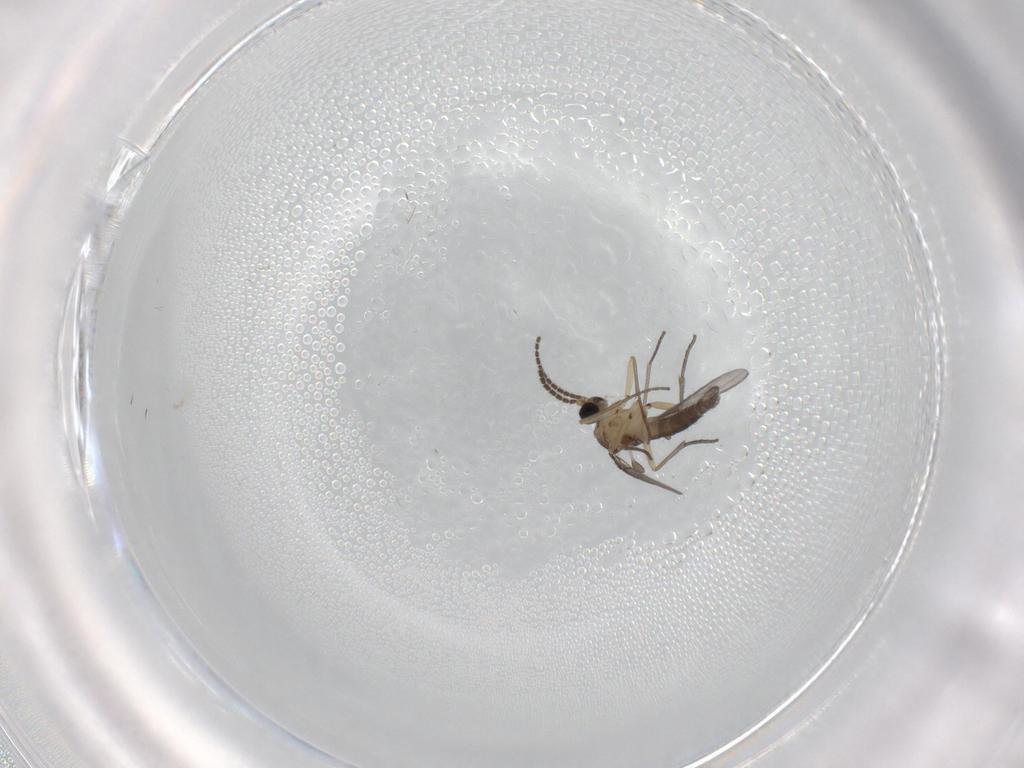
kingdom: Animalia
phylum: Arthropoda
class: Insecta
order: Diptera
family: Sciaridae
